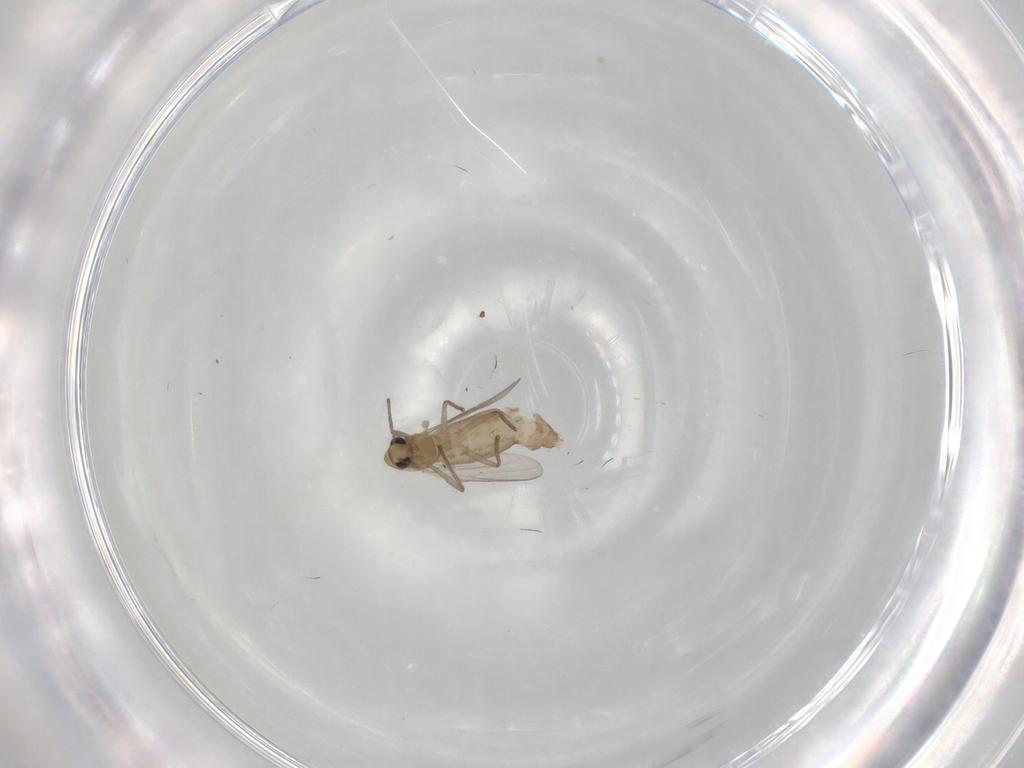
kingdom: Animalia
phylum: Arthropoda
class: Insecta
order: Diptera
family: Chironomidae
